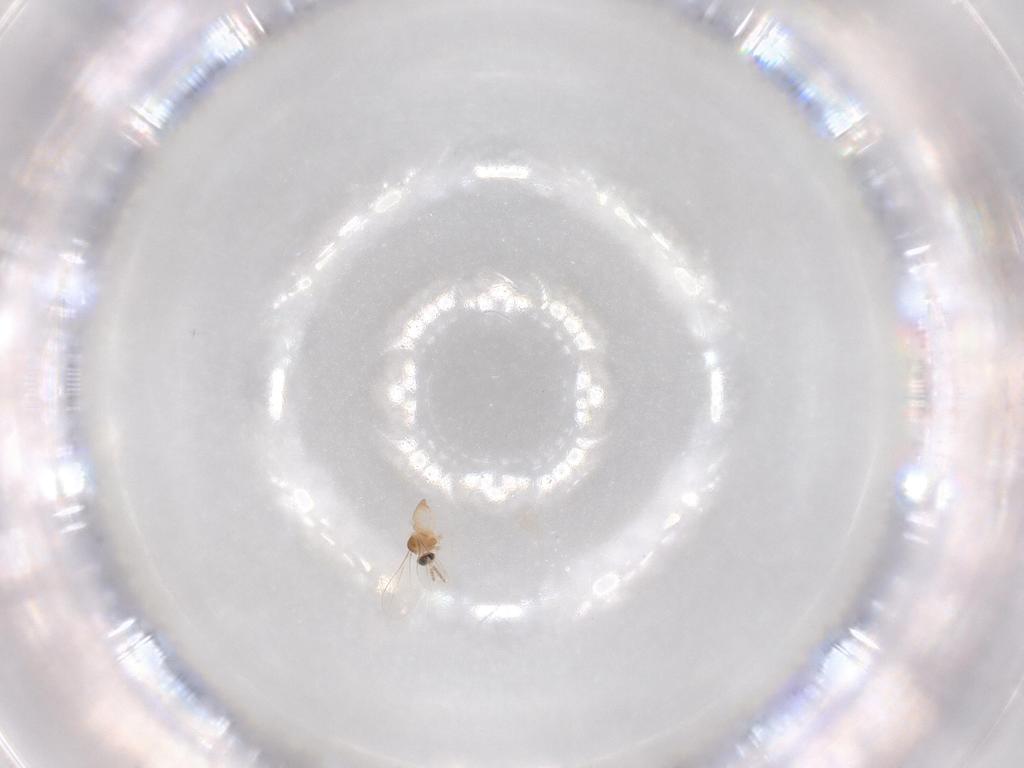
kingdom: Animalia
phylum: Arthropoda
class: Insecta
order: Diptera
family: Cecidomyiidae
